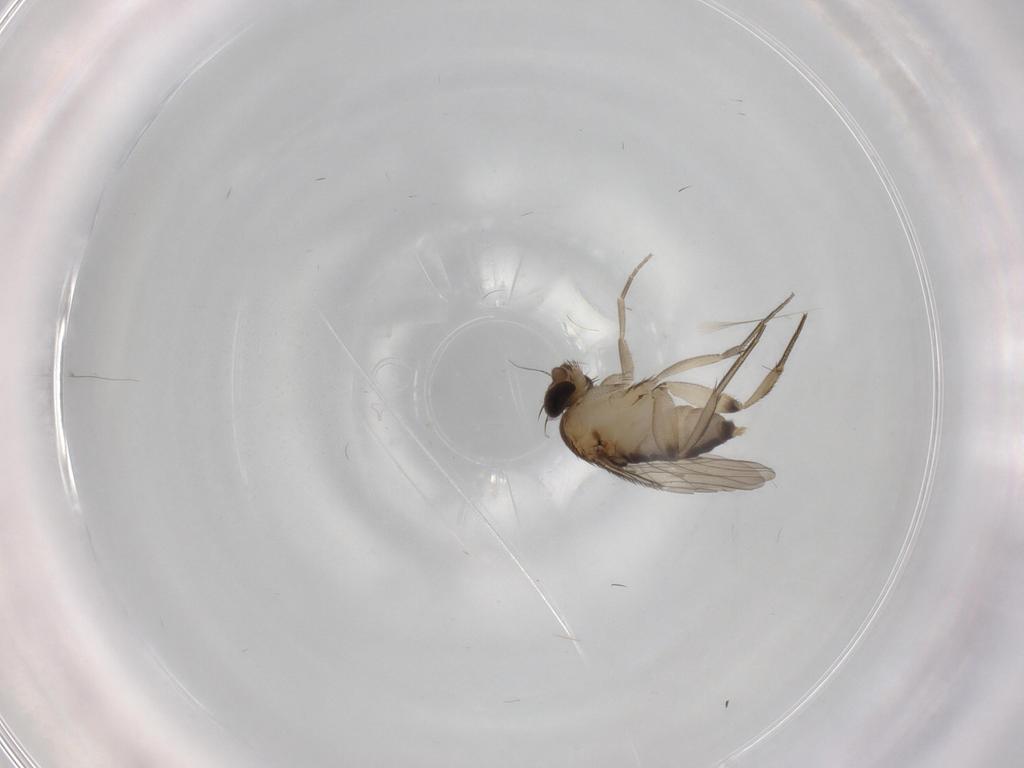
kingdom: Animalia
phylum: Arthropoda
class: Insecta
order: Diptera
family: Phoridae
